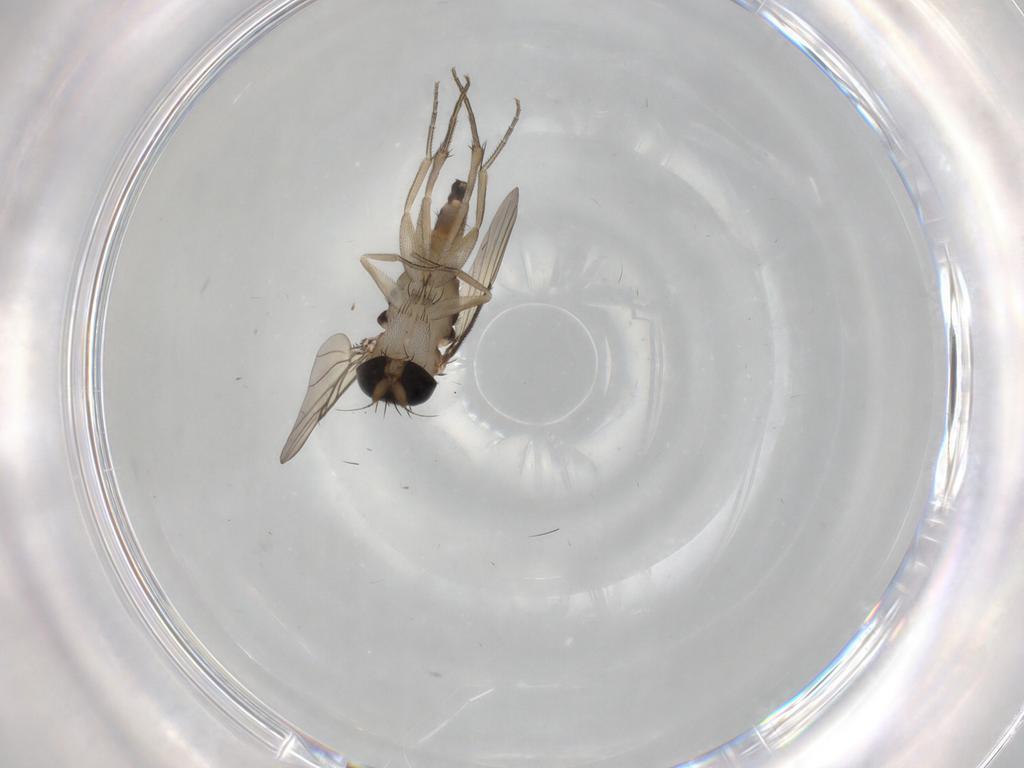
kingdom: Animalia
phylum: Arthropoda
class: Insecta
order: Diptera
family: Phoridae
